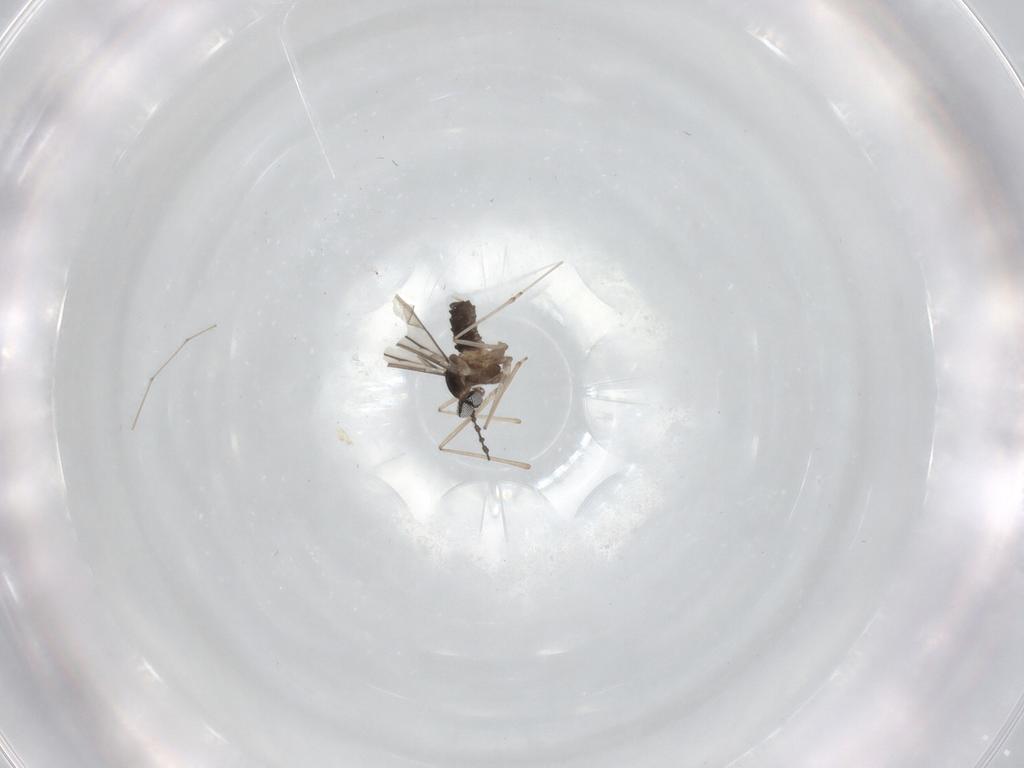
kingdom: Animalia
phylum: Arthropoda
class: Insecta
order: Diptera
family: Cecidomyiidae
